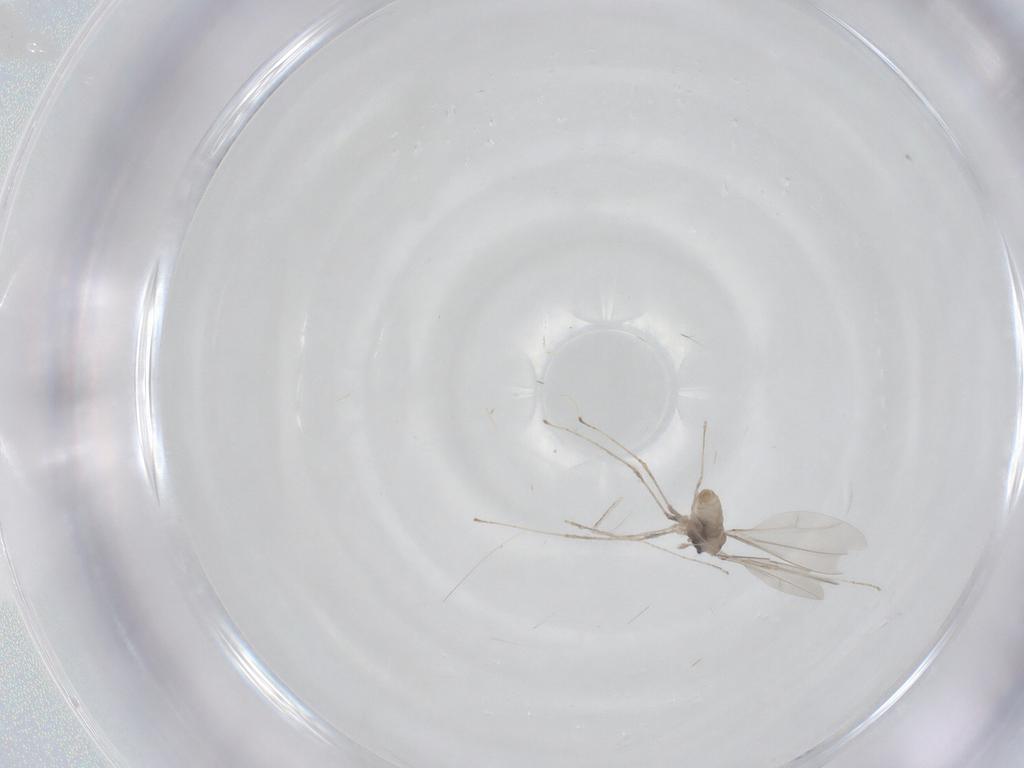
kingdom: Animalia
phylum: Arthropoda
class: Insecta
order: Diptera
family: Cecidomyiidae
